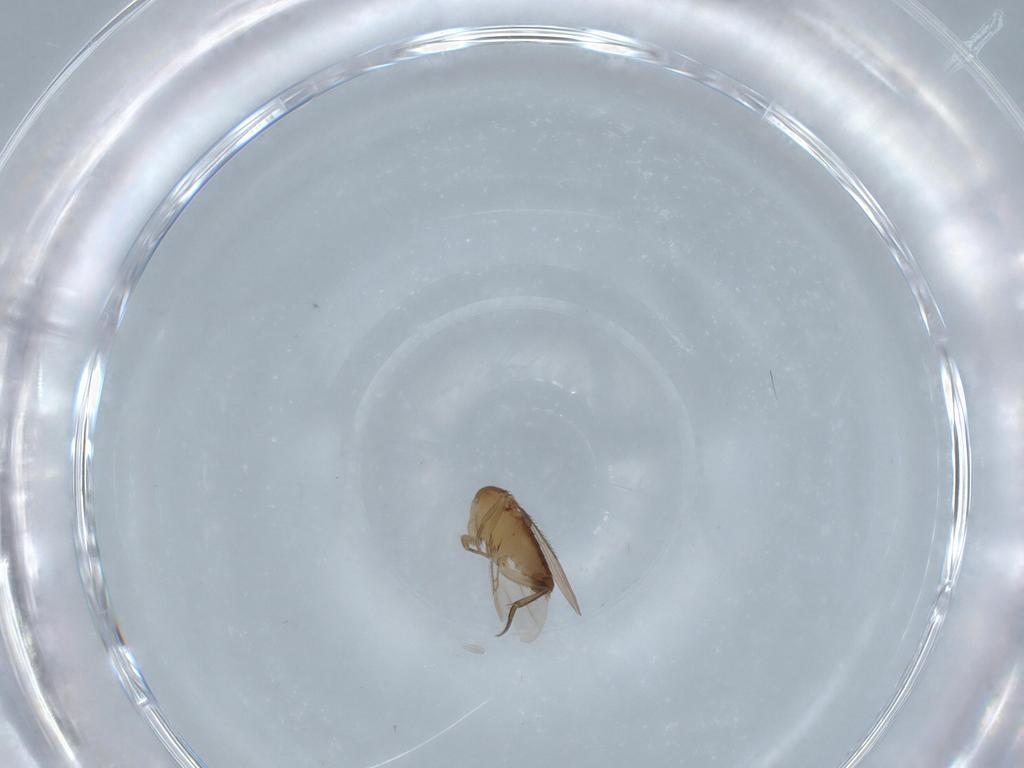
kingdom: Animalia
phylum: Arthropoda
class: Insecta
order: Diptera
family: Phoridae
